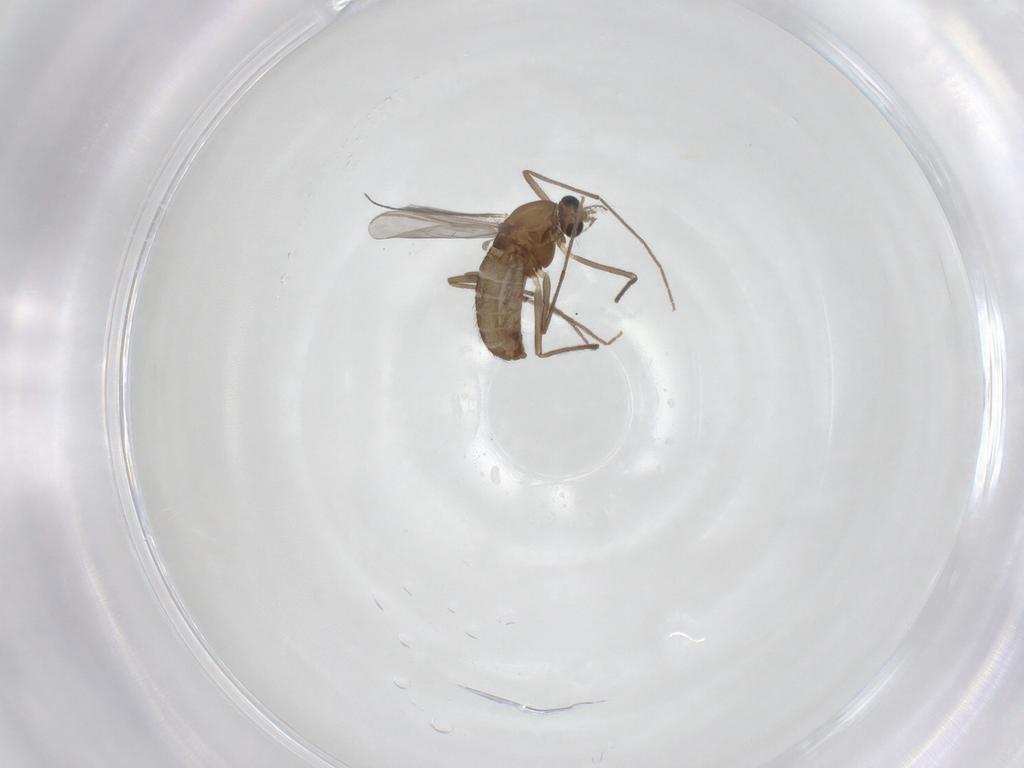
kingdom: Animalia
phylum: Arthropoda
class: Insecta
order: Diptera
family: Chironomidae
